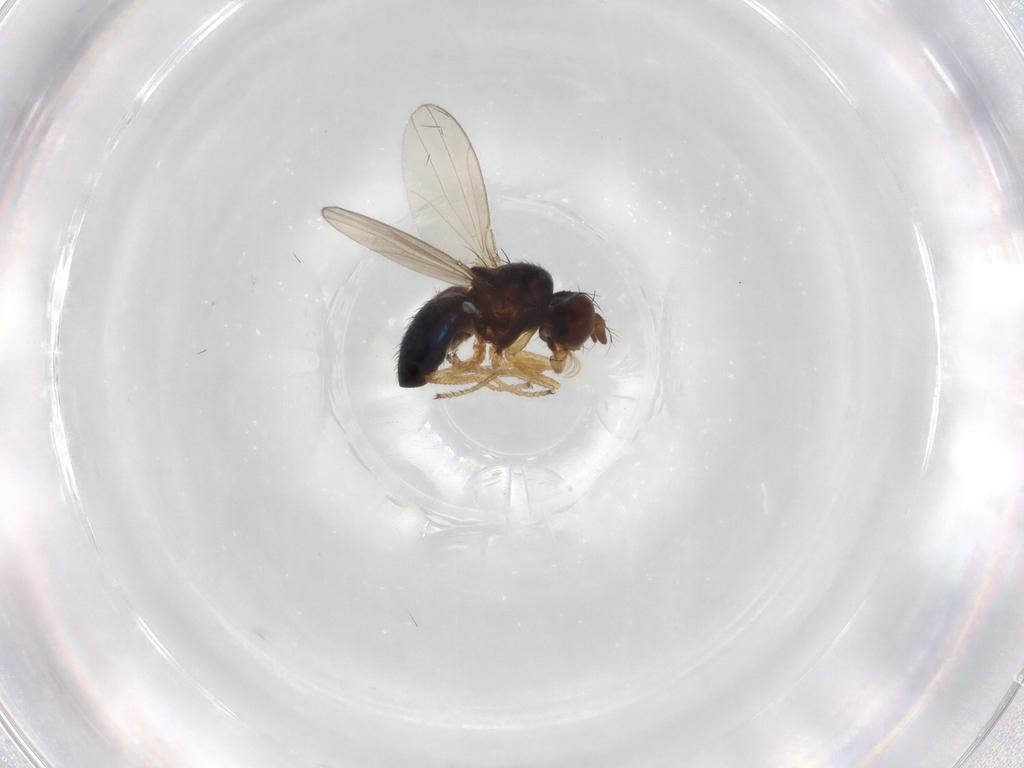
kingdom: Animalia
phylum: Arthropoda
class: Insecta
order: Diptera
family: Ephydridae
